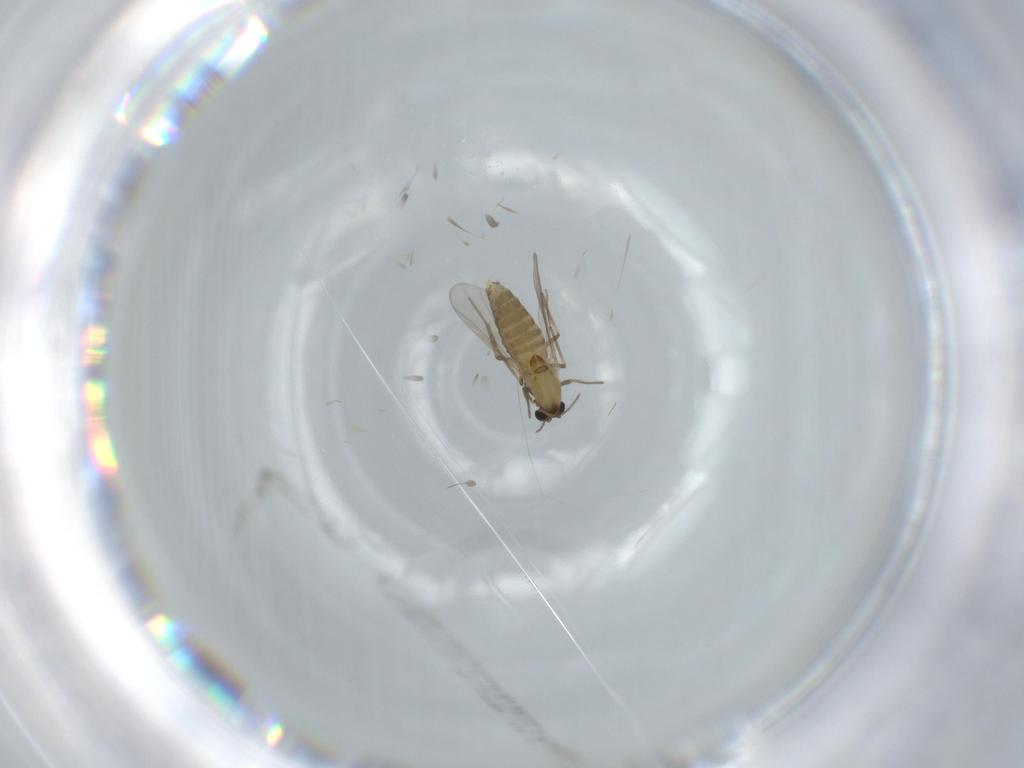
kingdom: Animalia
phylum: Arthropoda
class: Insecta
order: Diptera
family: Chironomidae
